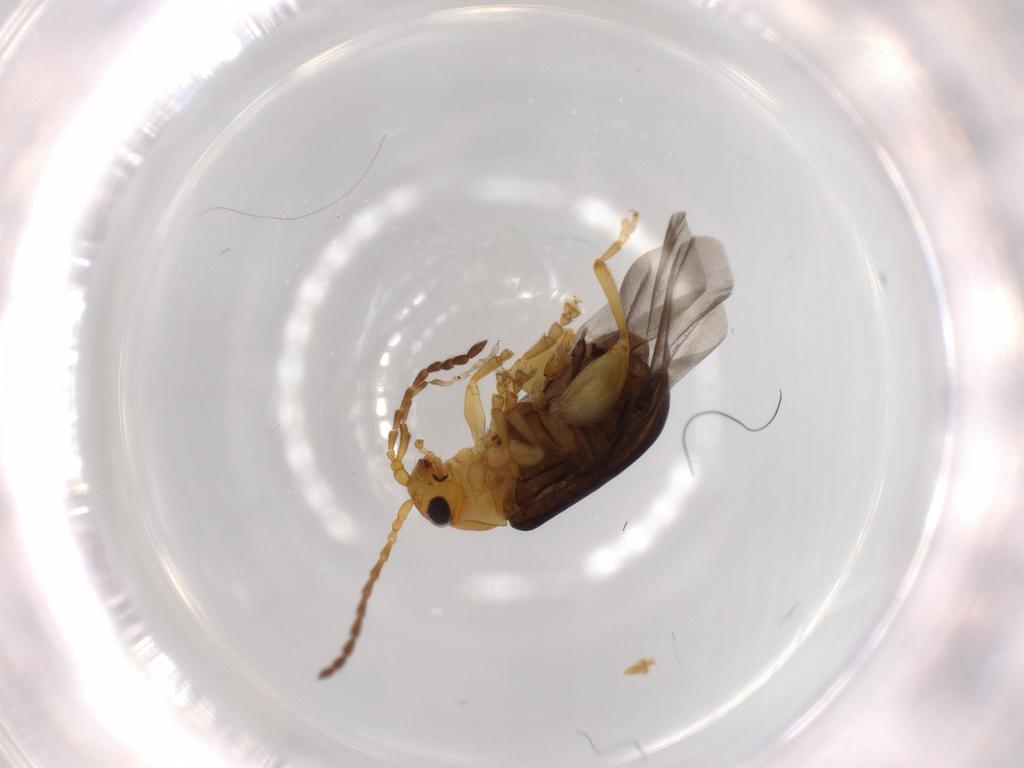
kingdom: Animalia
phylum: Arthropoda
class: Insecta
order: Coleoptera
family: Chrysomelidae
